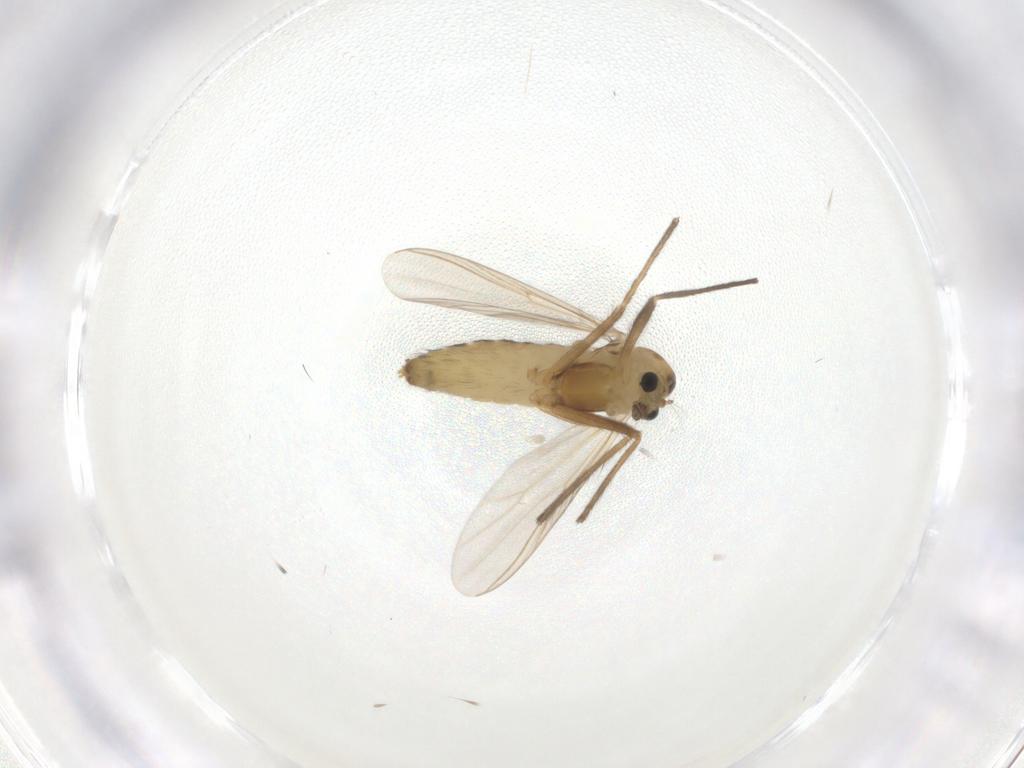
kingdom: Animalia
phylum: Arthropoda
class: Insecta
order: Diptera
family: Chironomidae
